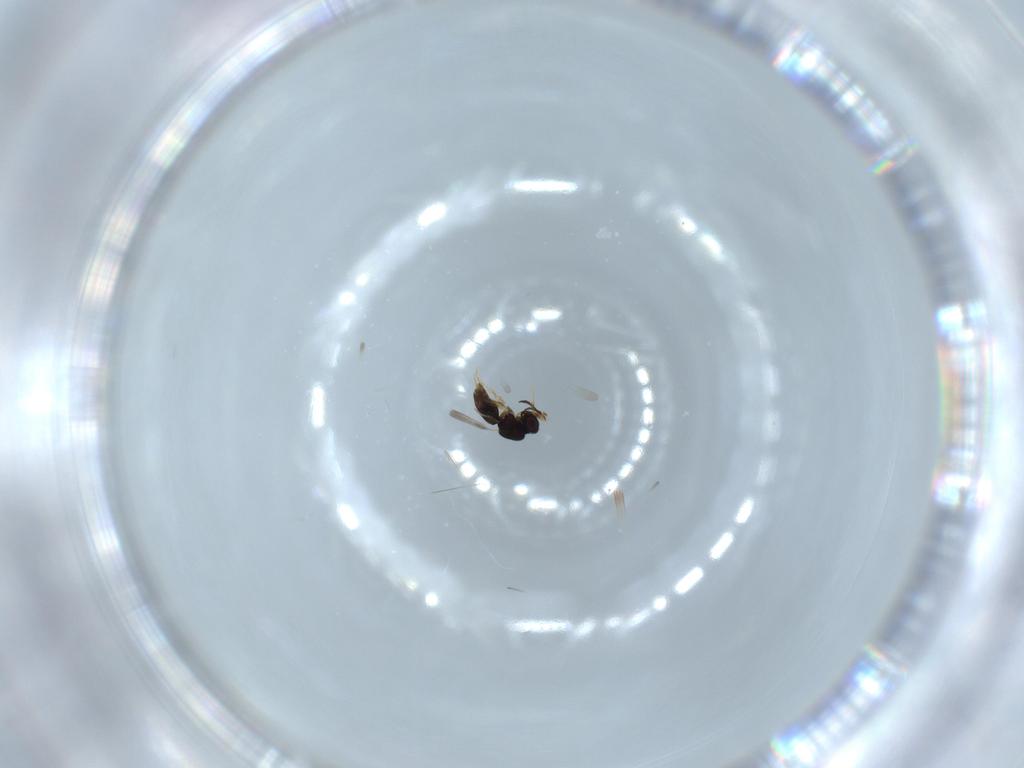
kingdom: Animalia
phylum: Arthropoda
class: Insecta
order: Hymenoptera
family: Ceraphronidae
